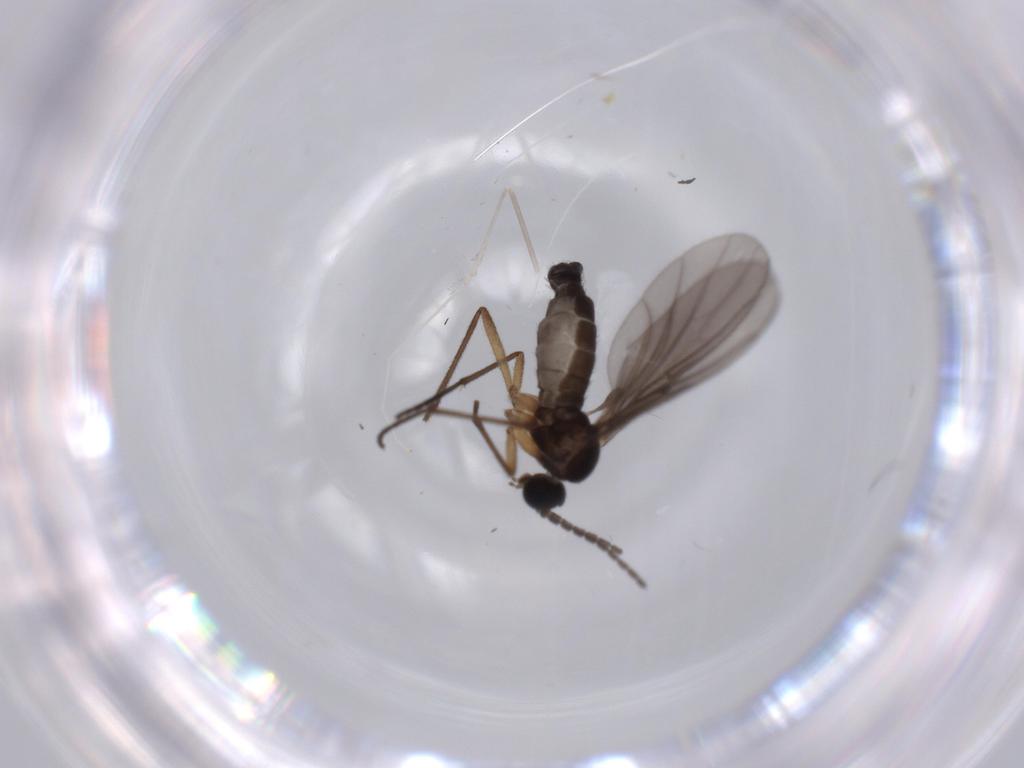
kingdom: Animalia
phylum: Arthropoda
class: Insecta
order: Diptera
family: Sciaridae
